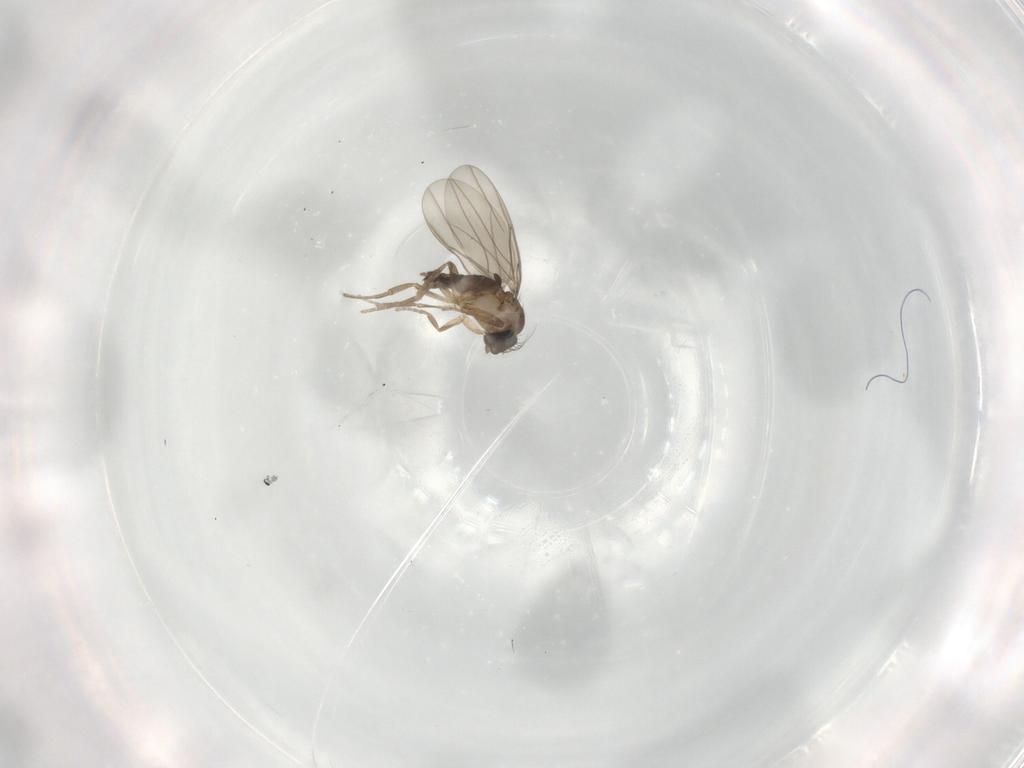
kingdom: Animalia
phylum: Arthropoda
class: Insecta
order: Diptera
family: Phoridae
